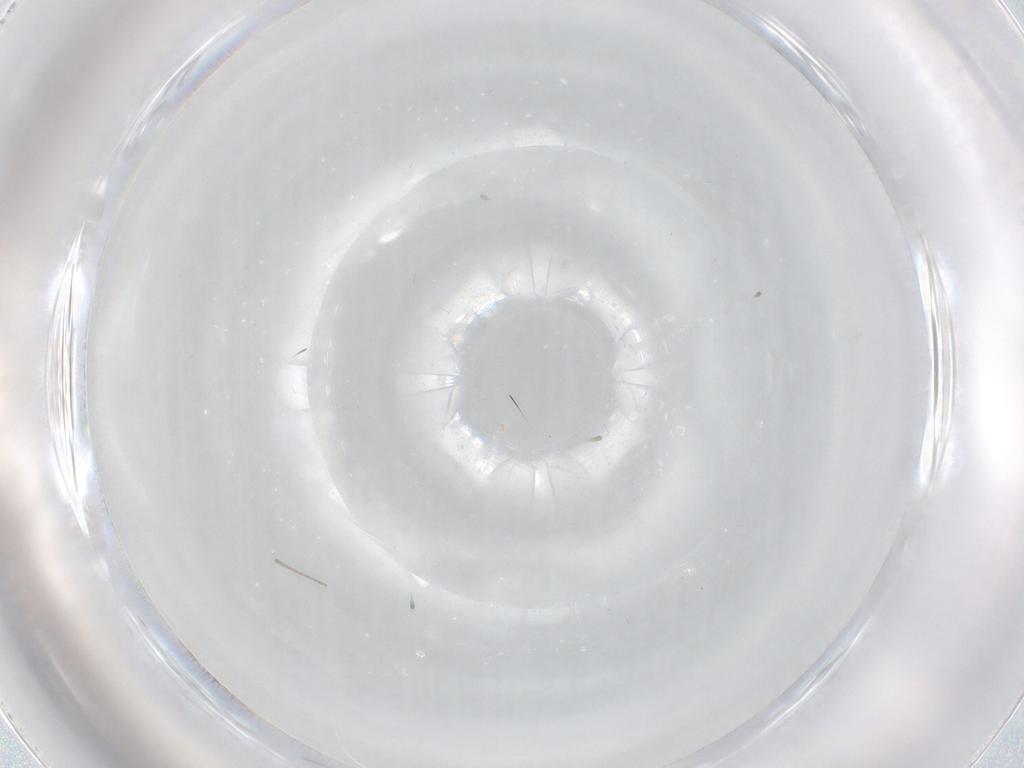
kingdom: Animalia
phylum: Arthropoda
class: Insecta
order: Diptera
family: Cecidomyiidae
